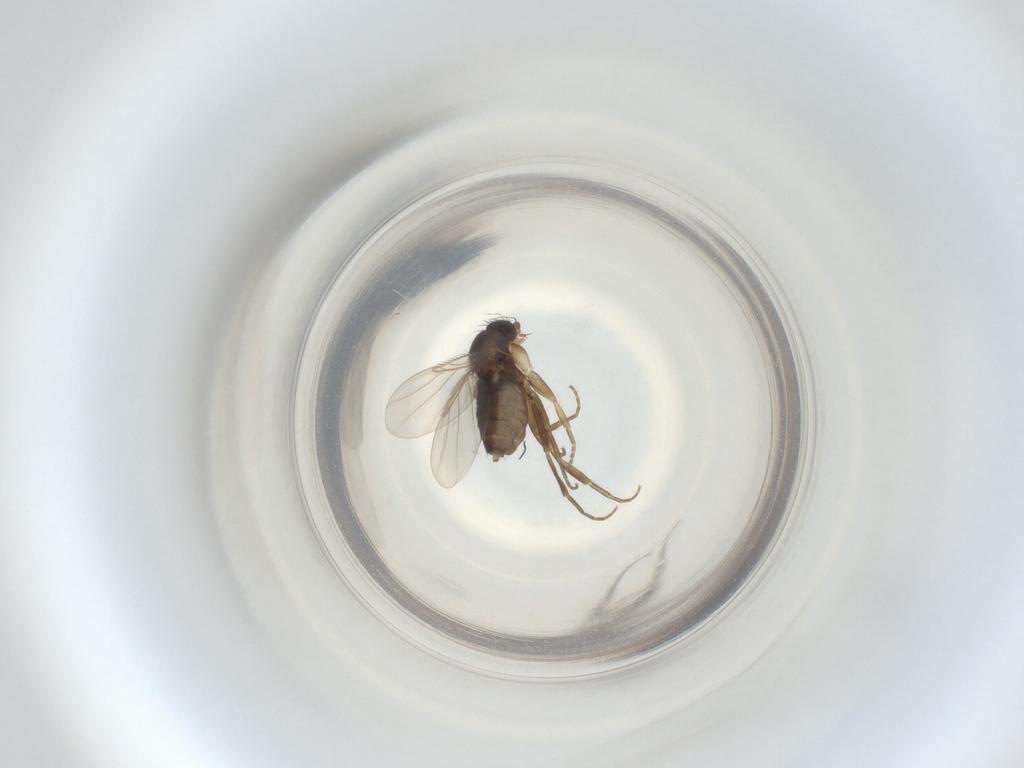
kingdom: Animalia
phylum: Arthropoda
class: Insecta
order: Diptera
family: Phoridae
